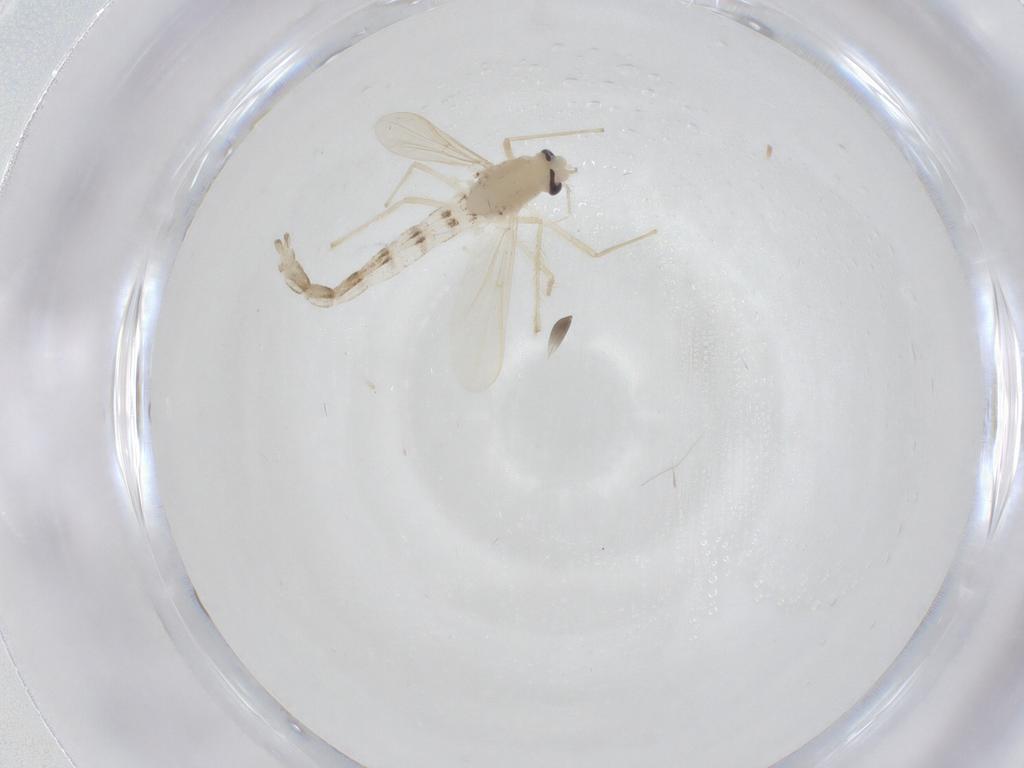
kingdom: Animalia
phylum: Arthropoda
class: Insecta
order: Diptera
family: Chironomidae
